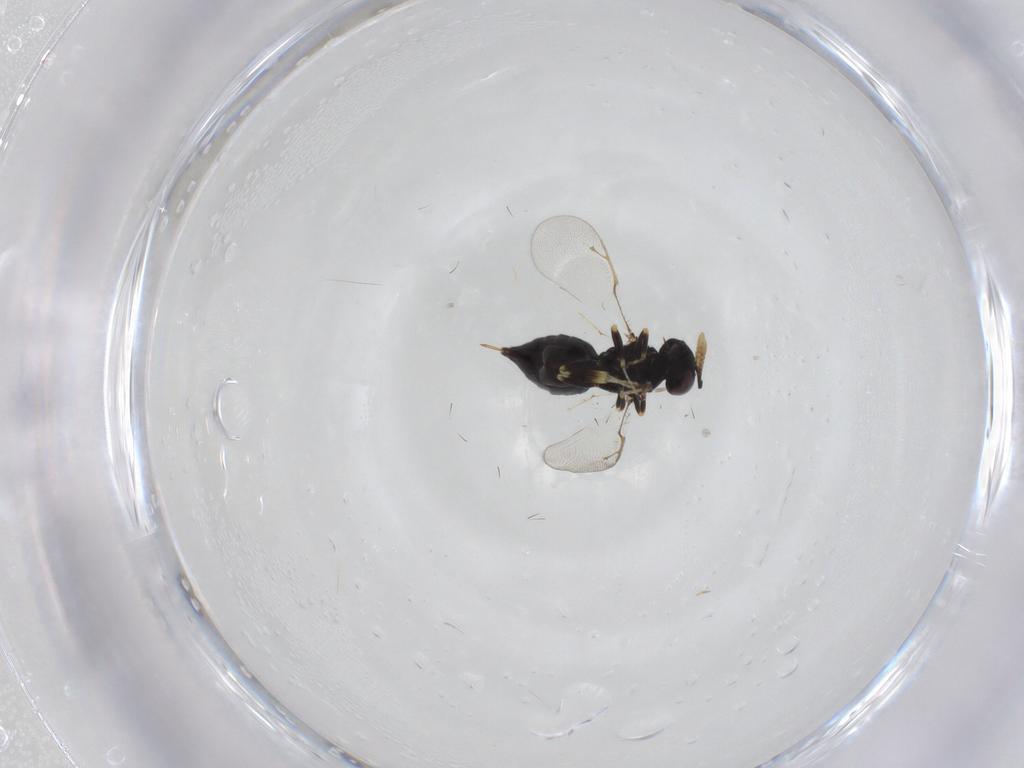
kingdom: Animalia
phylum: Arthropoda
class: Insecta
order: Hymenoptera
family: Pteromalidae
